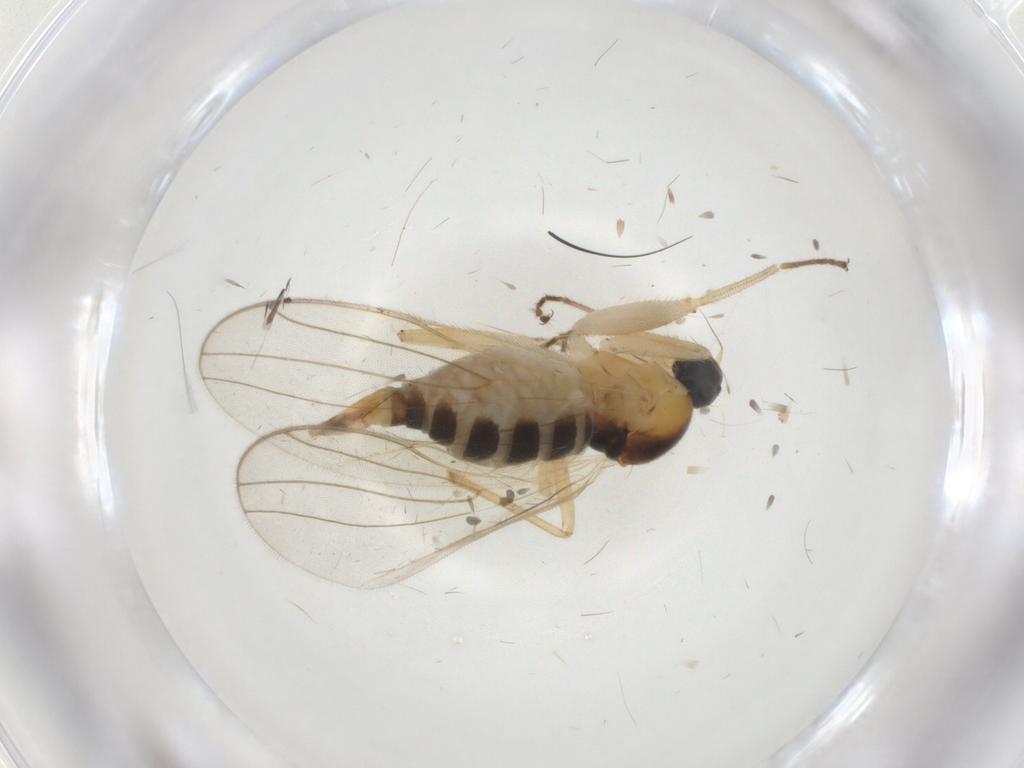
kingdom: Animalia
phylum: Arthropoda
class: Insecta
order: Diptera
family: Hybotidae
